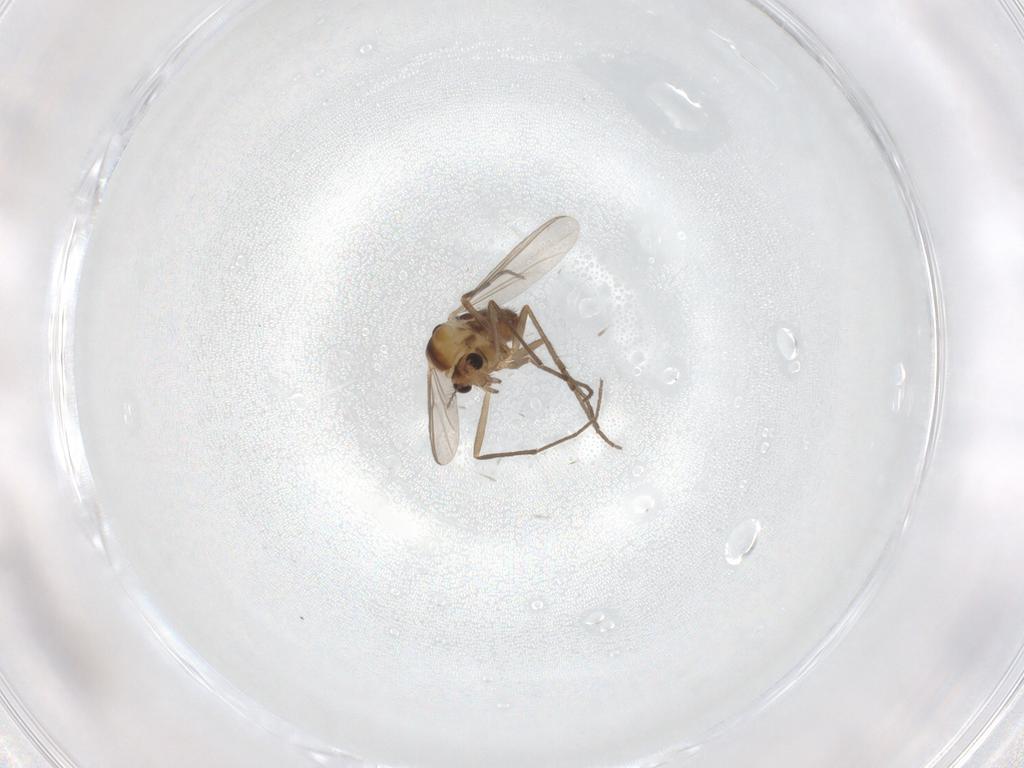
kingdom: Animalia
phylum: Arthropoda
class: Insecta
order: Diptera
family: Chironomidae
